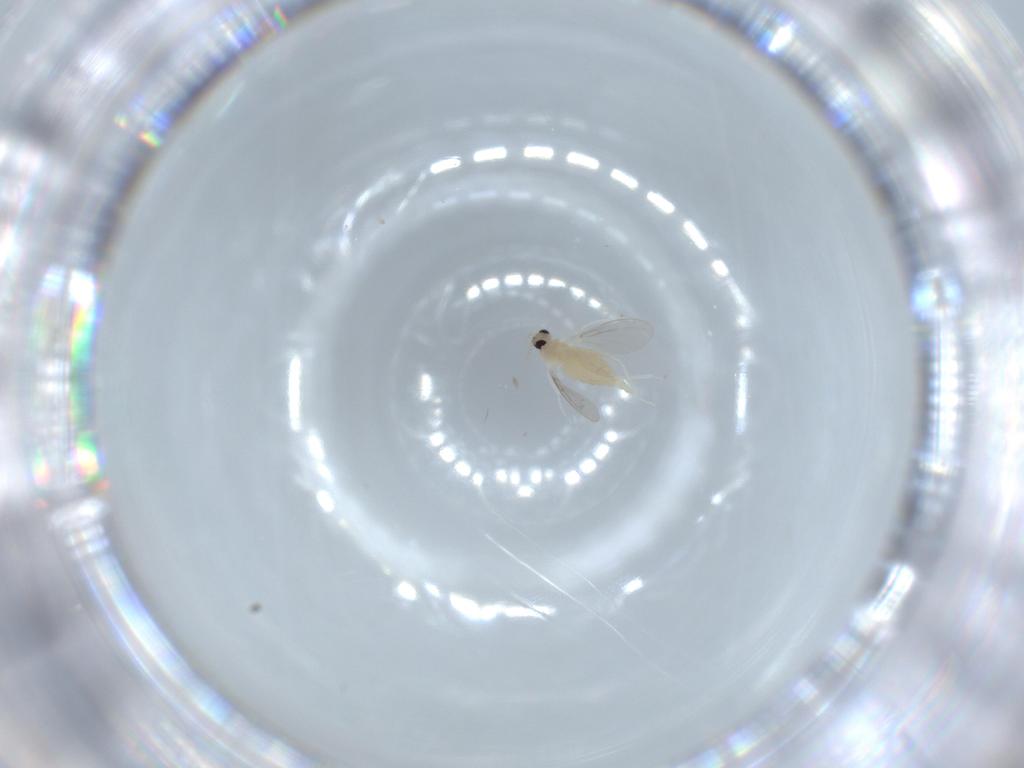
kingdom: Animalia
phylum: Arthropoda
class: Insecta
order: Diptera
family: Cecidomyiidae
